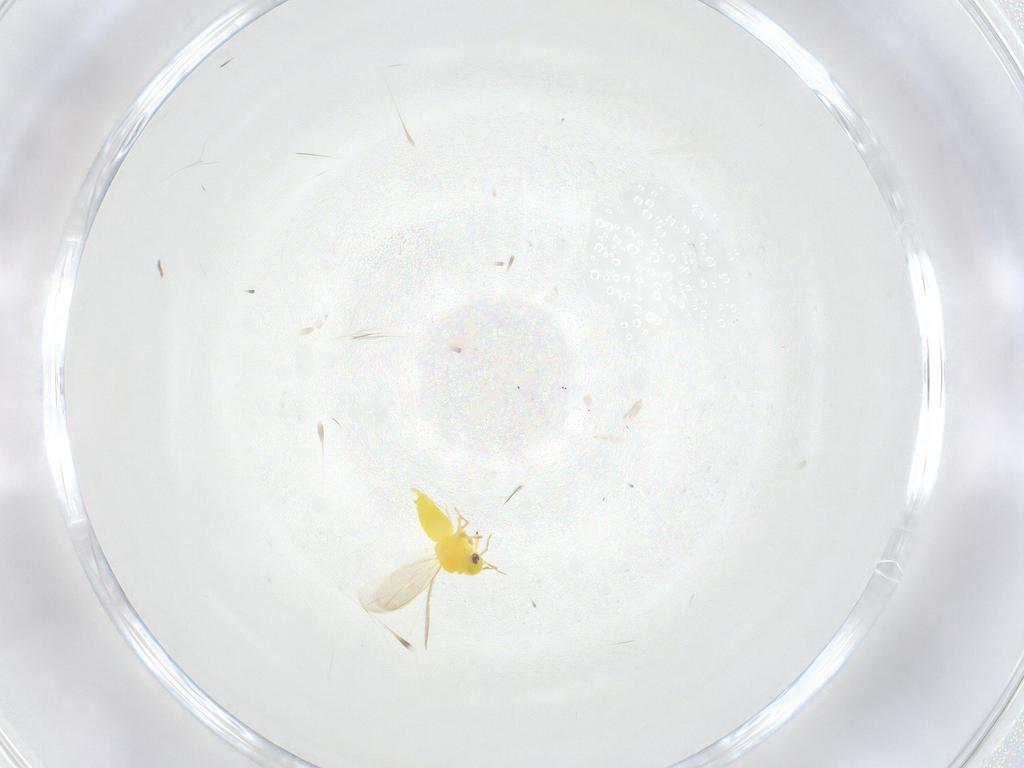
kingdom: Animalia
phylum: Arthropoda
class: Insecta
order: Hemiptera
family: Aleyrodidae
